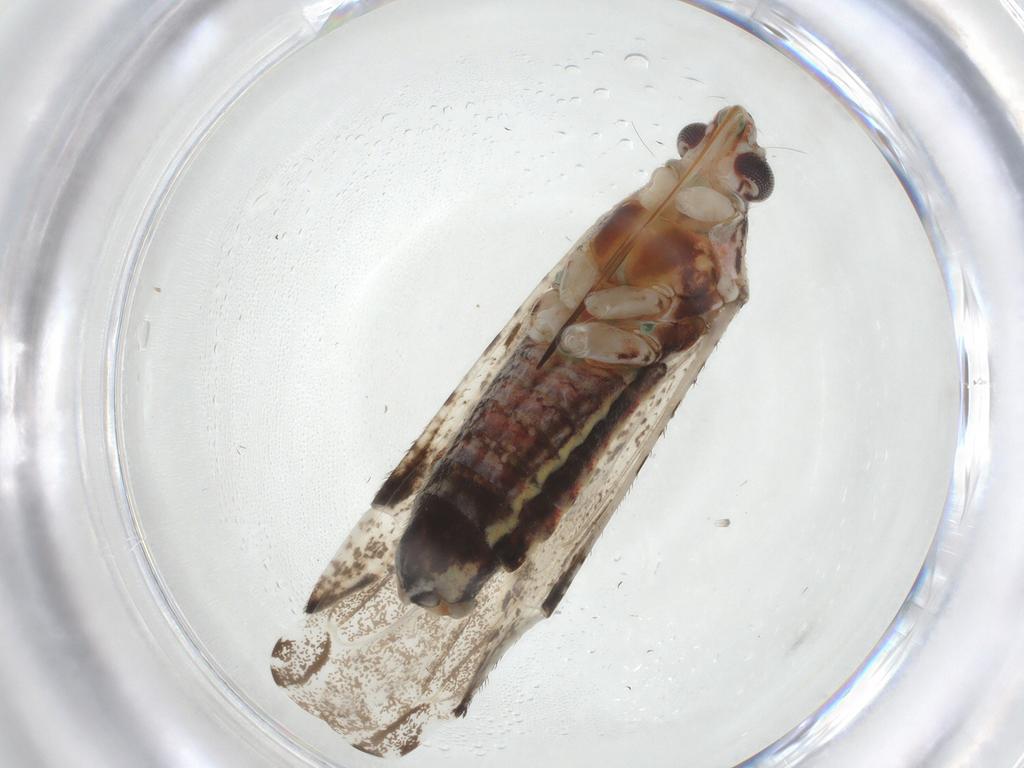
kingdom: Animalia
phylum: Arthropoda
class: Insecta
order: Hemiptera
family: Miridae
